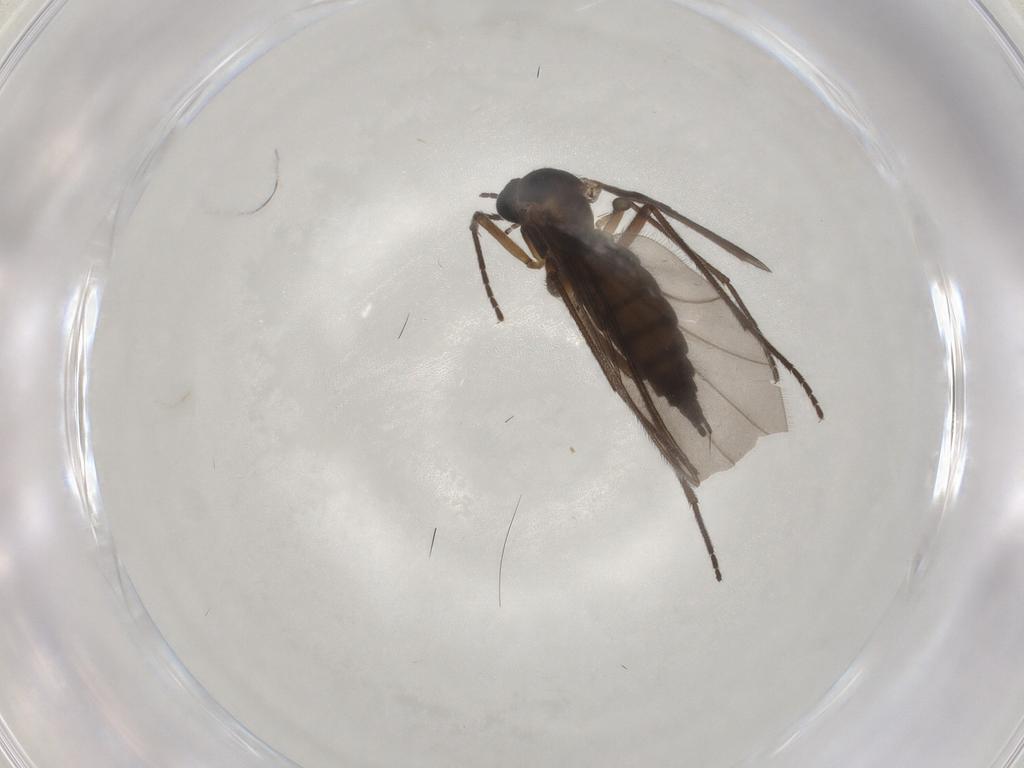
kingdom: Animalia
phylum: Arthropoda
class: Insecta
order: Diptera
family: Sciaridae
